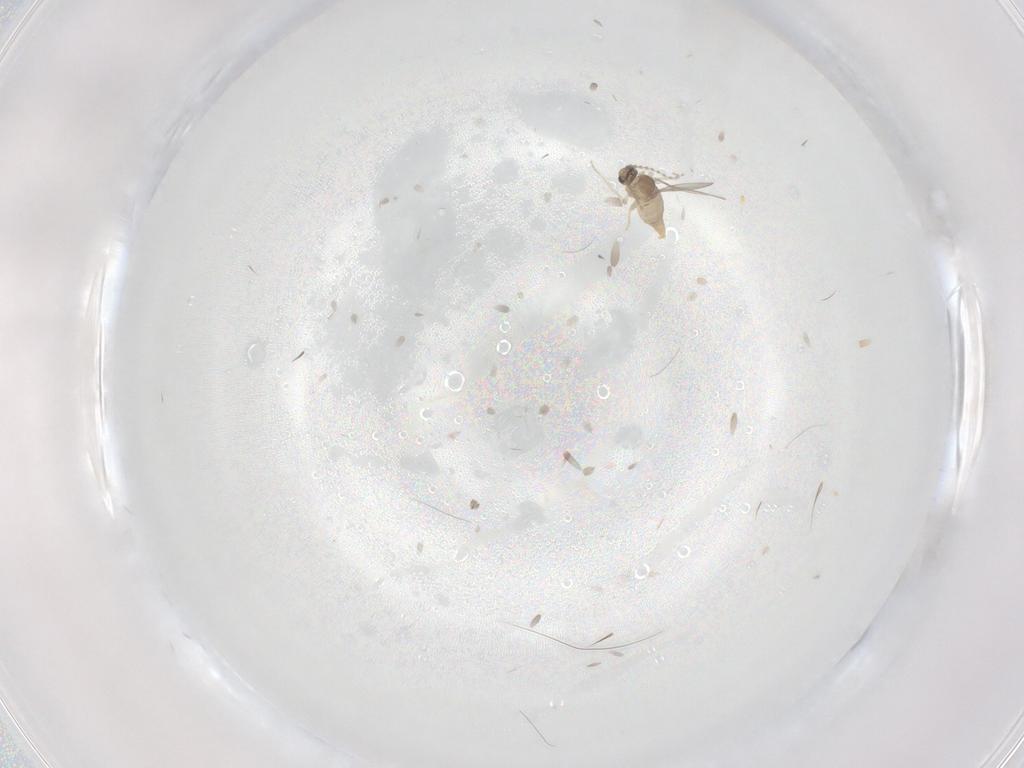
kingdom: Animalia
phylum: Arthropoda
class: Insecta
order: Diptera
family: Cecidomyiidae
